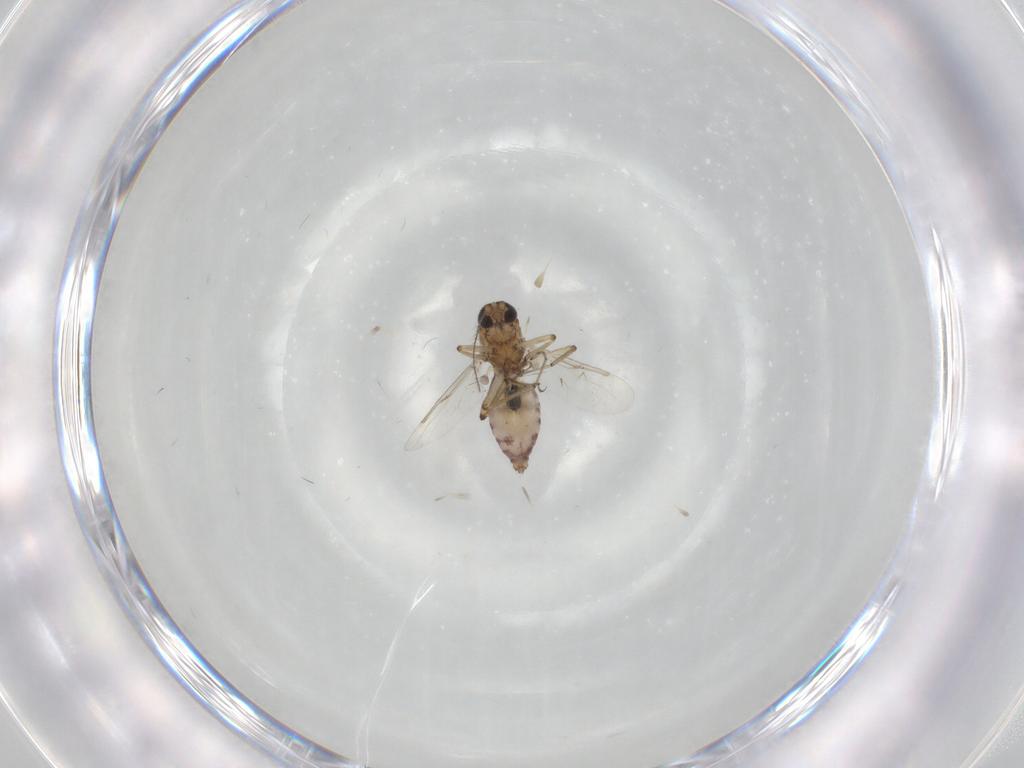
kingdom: Animalia
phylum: Arthropoda
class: Insecta
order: Diptera
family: Ceratopogonidae
